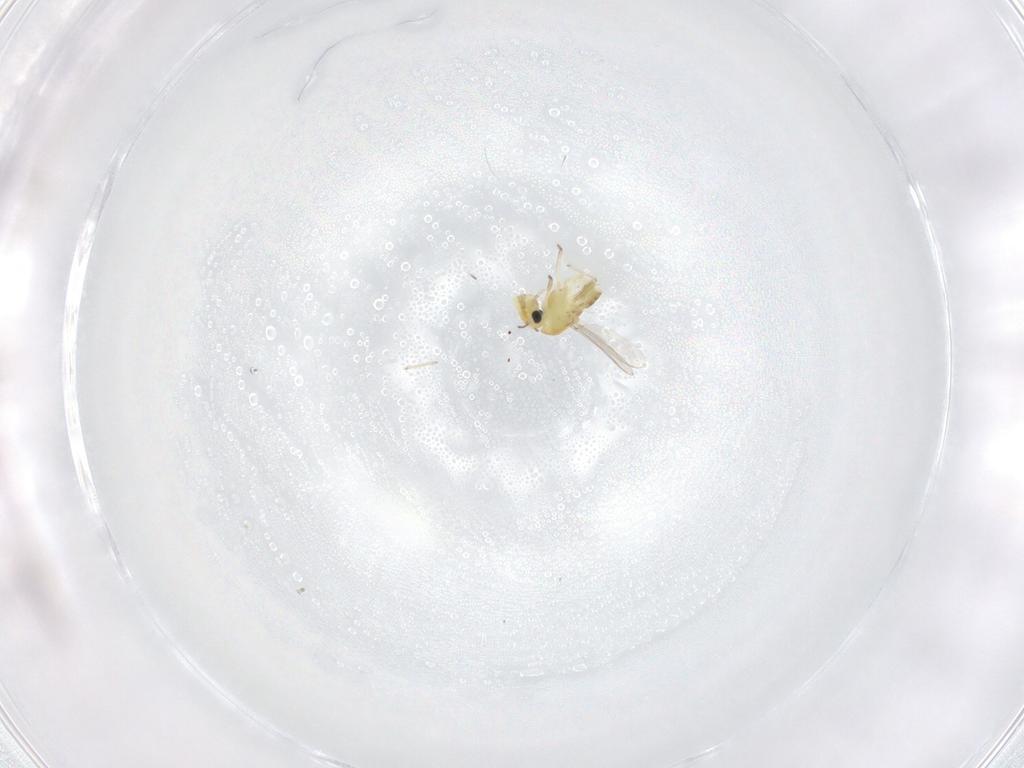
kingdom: Animalia
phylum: Arthropoda
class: Insecta
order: Diptera
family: Chironomidae
